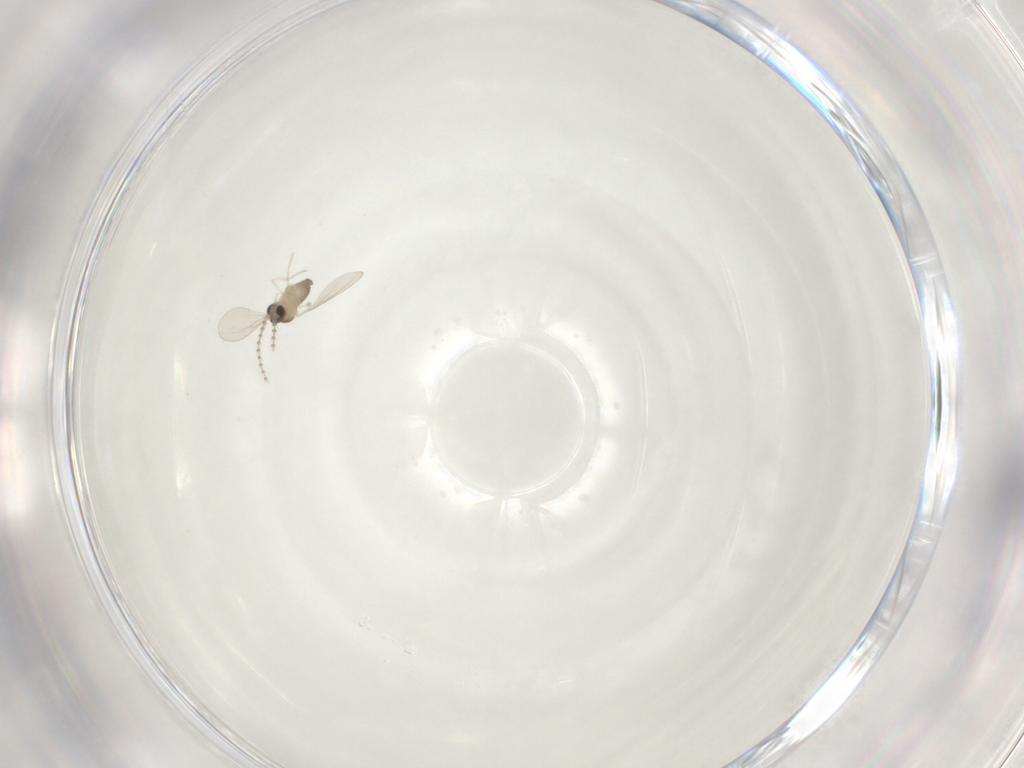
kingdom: Animalia
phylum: Arthropoda
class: Insecta
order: Diptera
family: Cecidomyiidae
